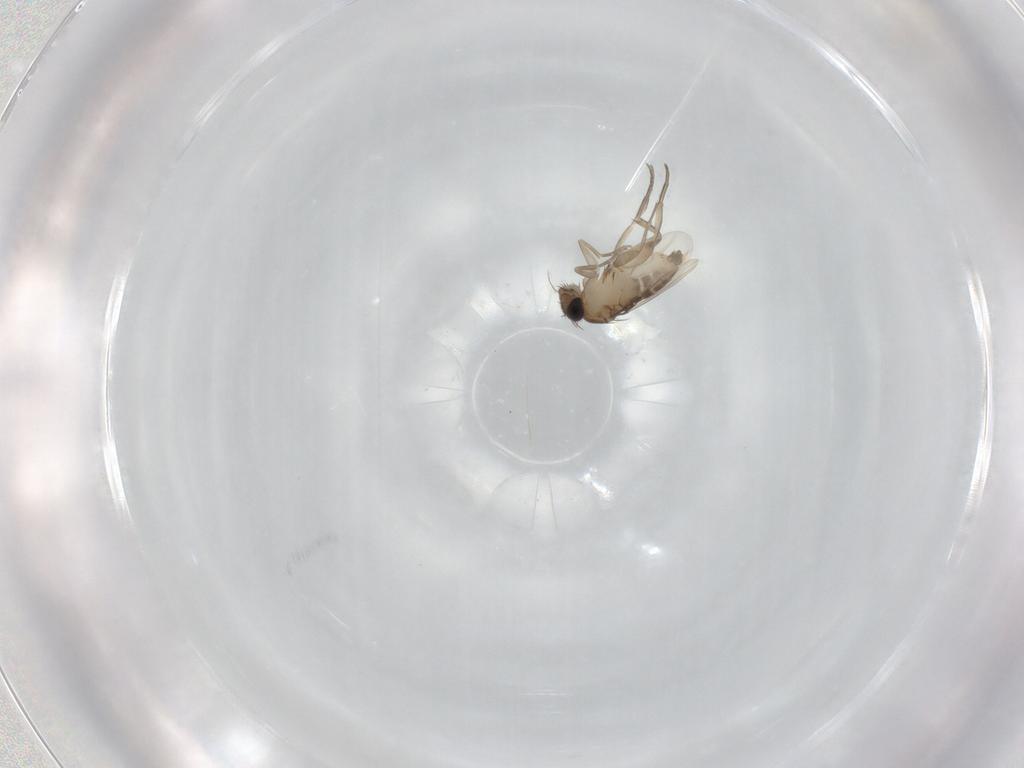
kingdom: Animalia
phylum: Arthropoda
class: Insecta
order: Diptera
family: Phoridae
